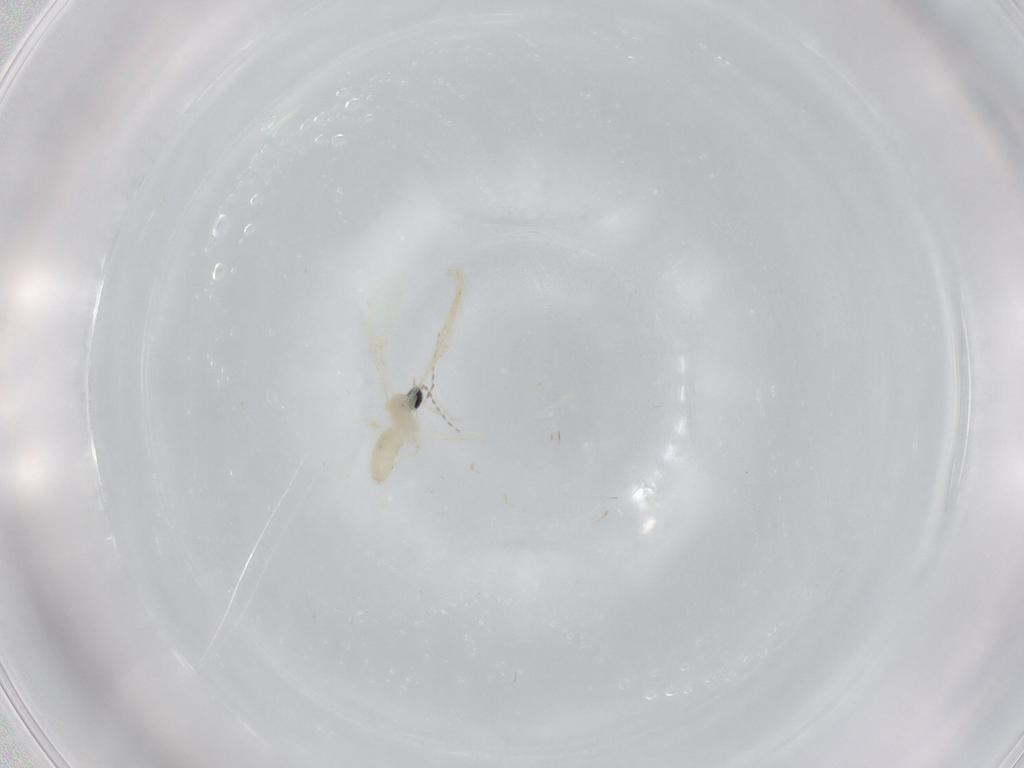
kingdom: Animalia
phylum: Arthropoda
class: Insecta
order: Diptera
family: Cecidomyiidae
